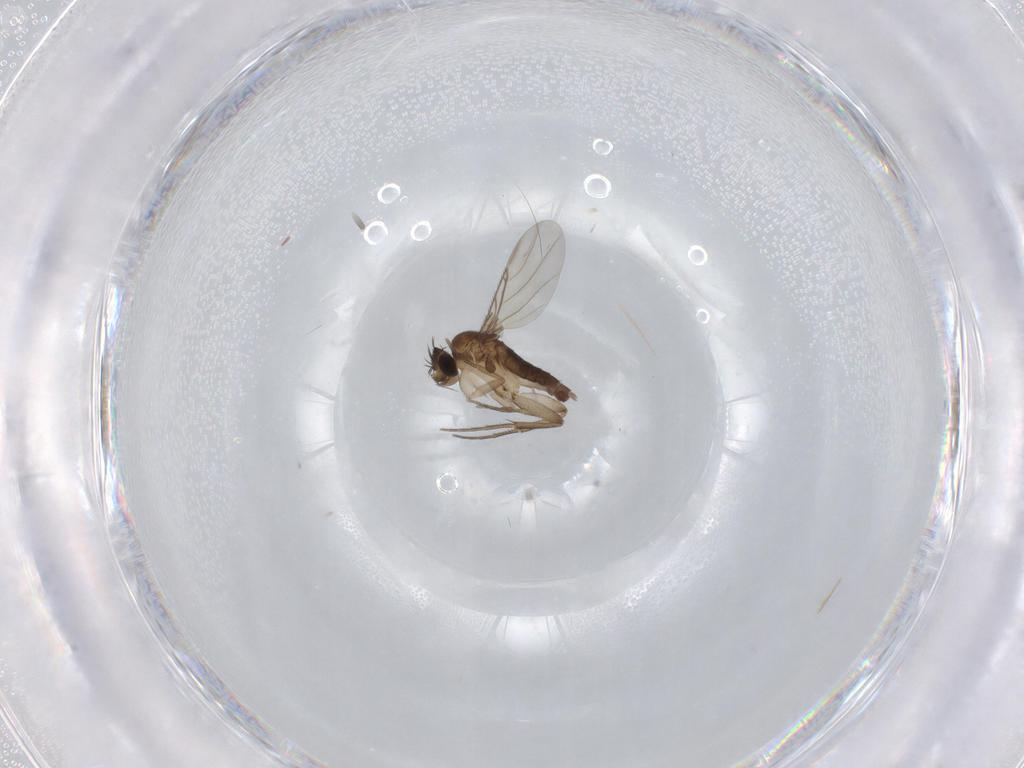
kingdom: Animalia
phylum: Arthropoda
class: Insecta
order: Diptera
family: Phoridae
